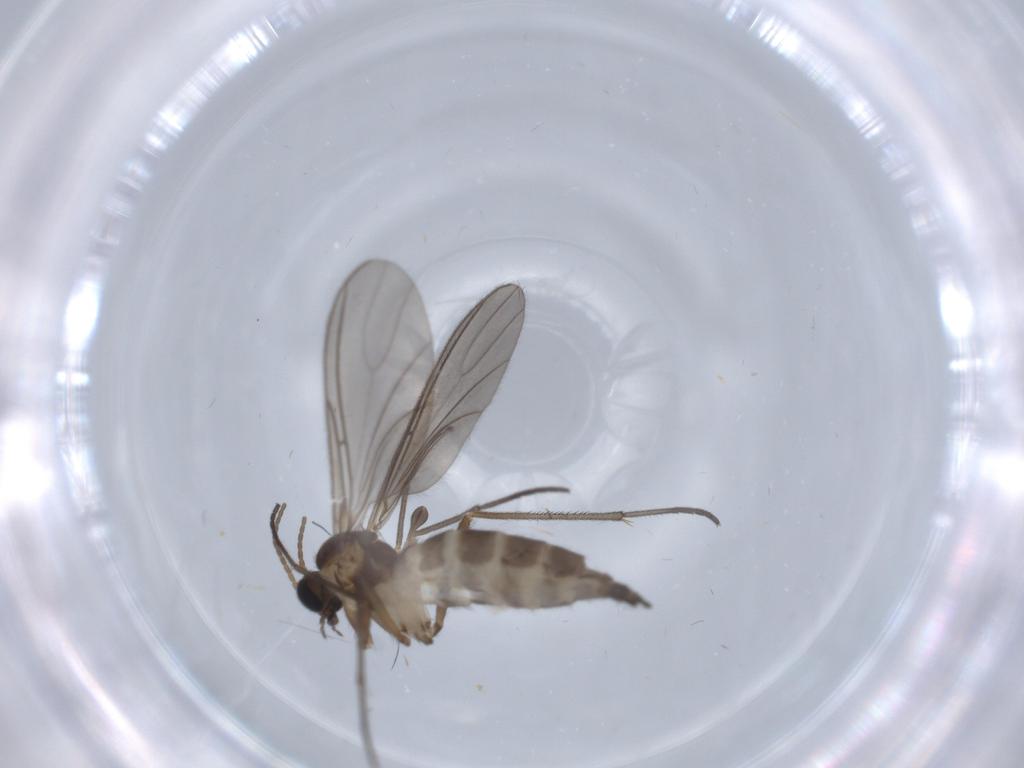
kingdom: Animalia
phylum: Arthropoda
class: Insecta
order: Diptera
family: Sciaridae
